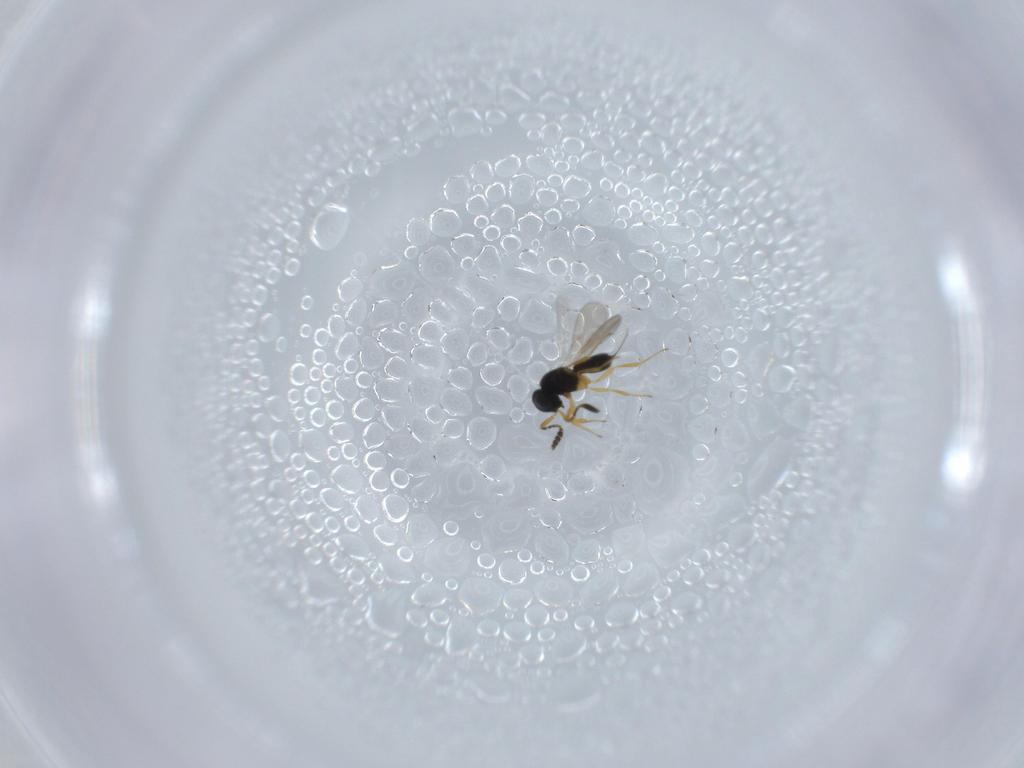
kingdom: Animalia
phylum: Arthropoda
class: Insecta
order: Hymenoptera
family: Scelionidae
